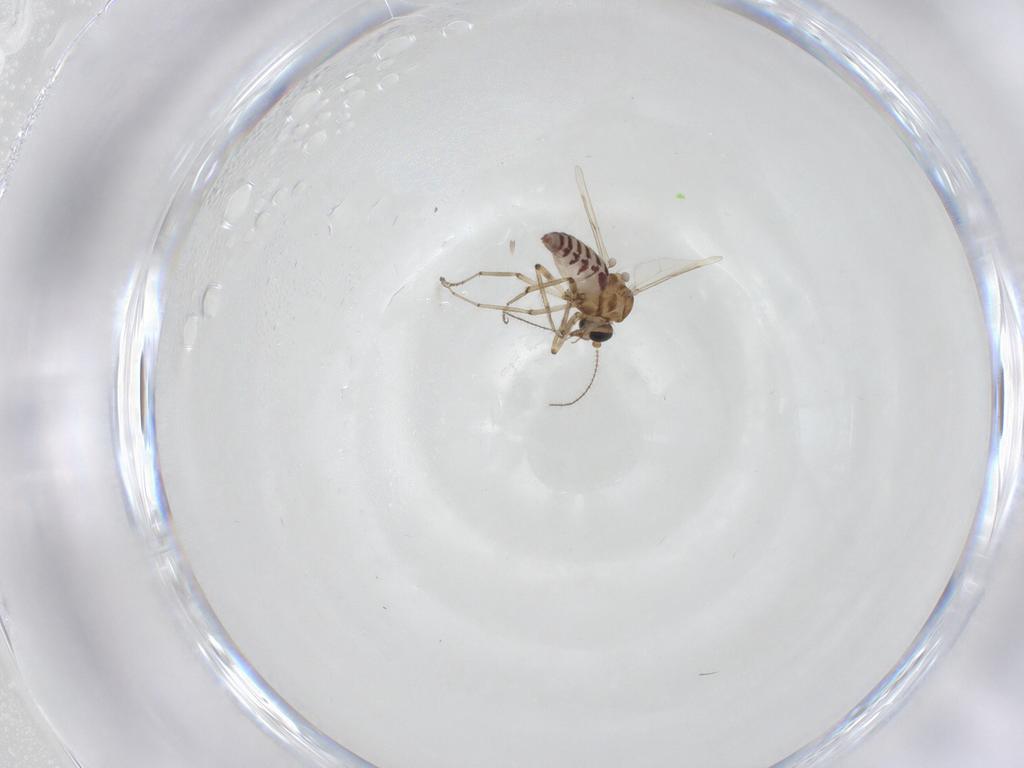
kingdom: Animalia
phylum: Arthropoda
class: Insecta
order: Diptera
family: Ceratopogonidae
